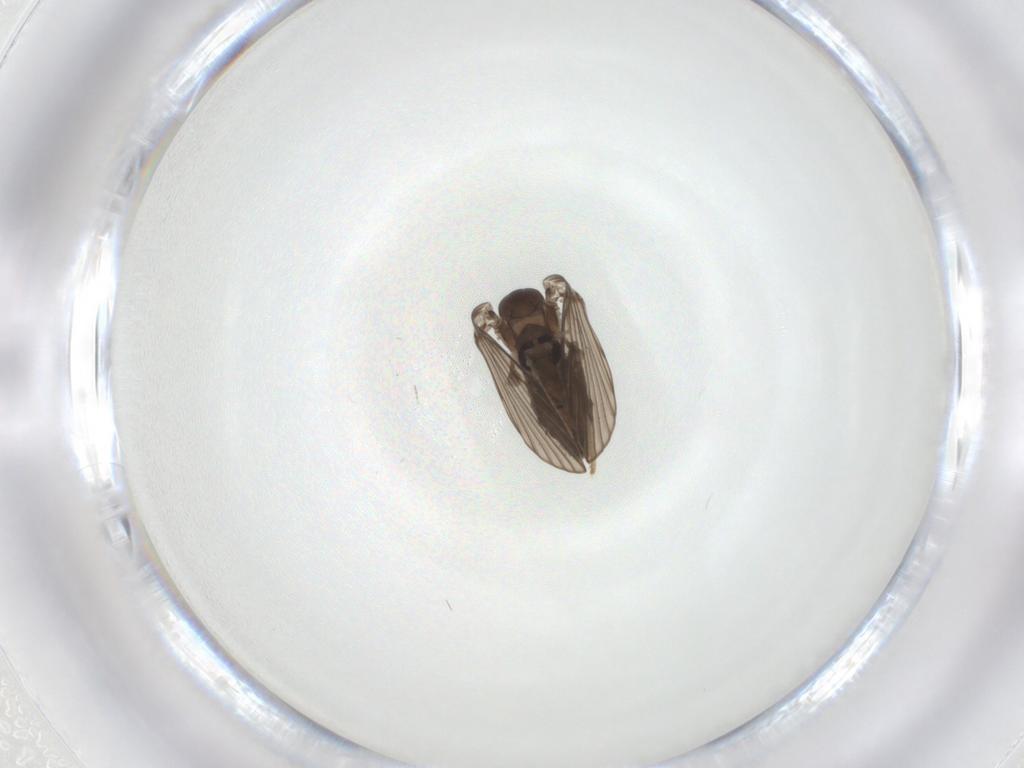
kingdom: Animalia
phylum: Arthropoda
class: Insecta
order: Diptera
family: Psychodidae
